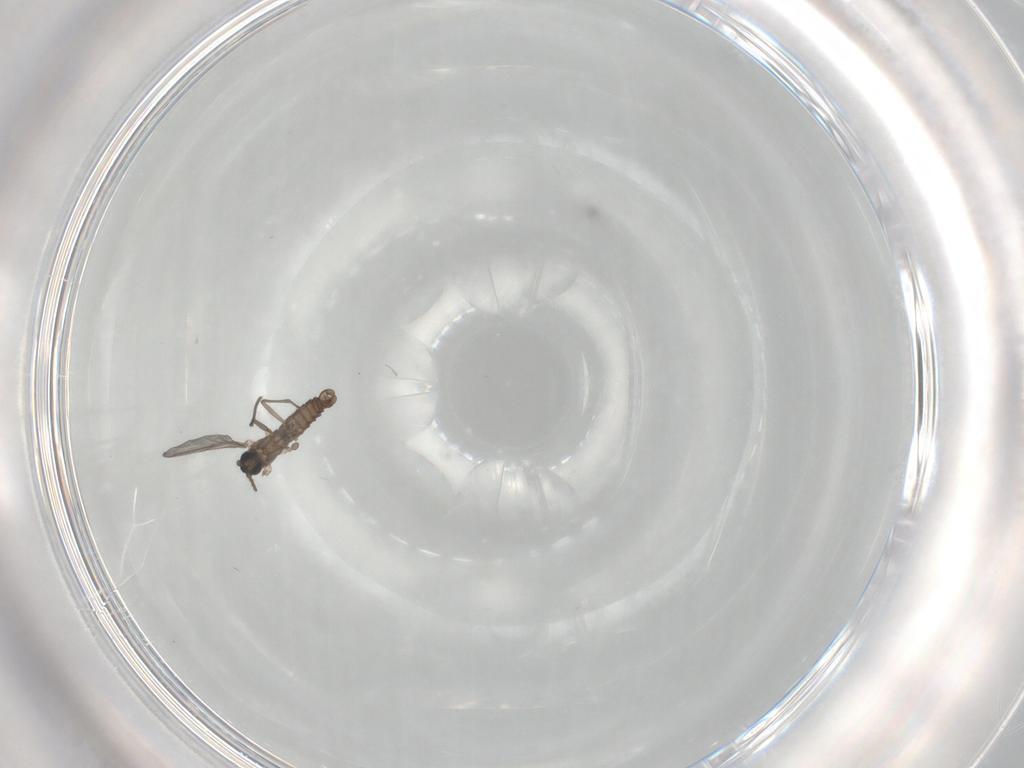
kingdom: Animalia
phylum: Arthropoda
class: Insecta
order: Diptera
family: Sciaridae
